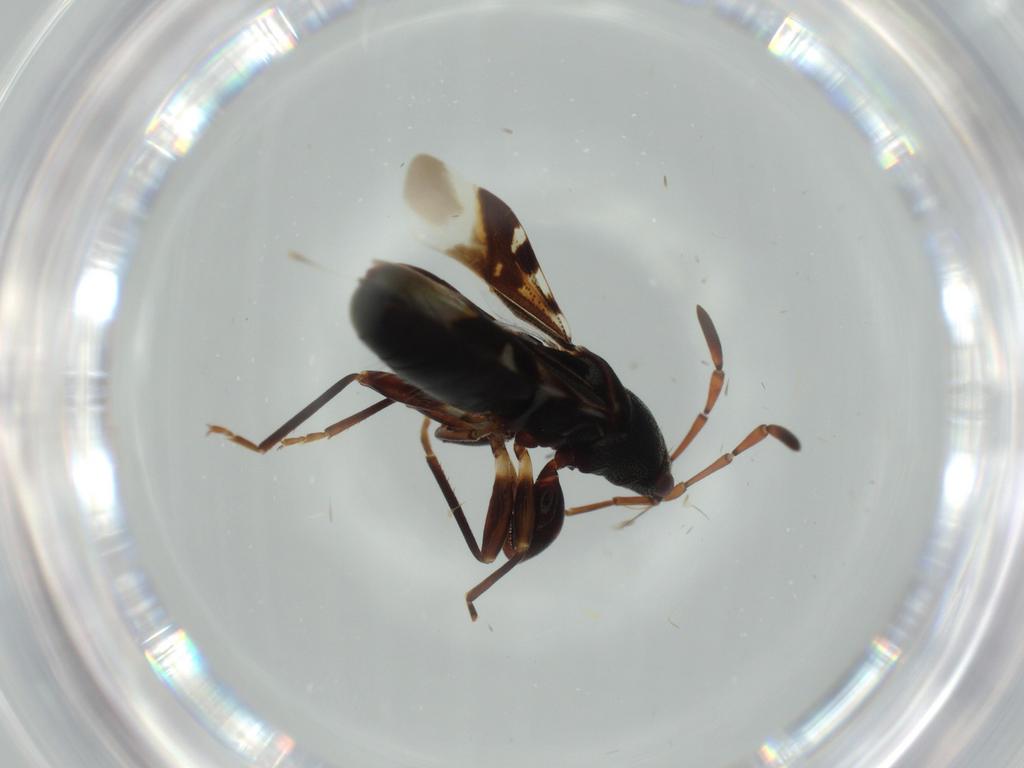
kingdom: Animalia
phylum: Arthropoda
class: Insecta
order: Hemiptera
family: Rhyparochromidae
